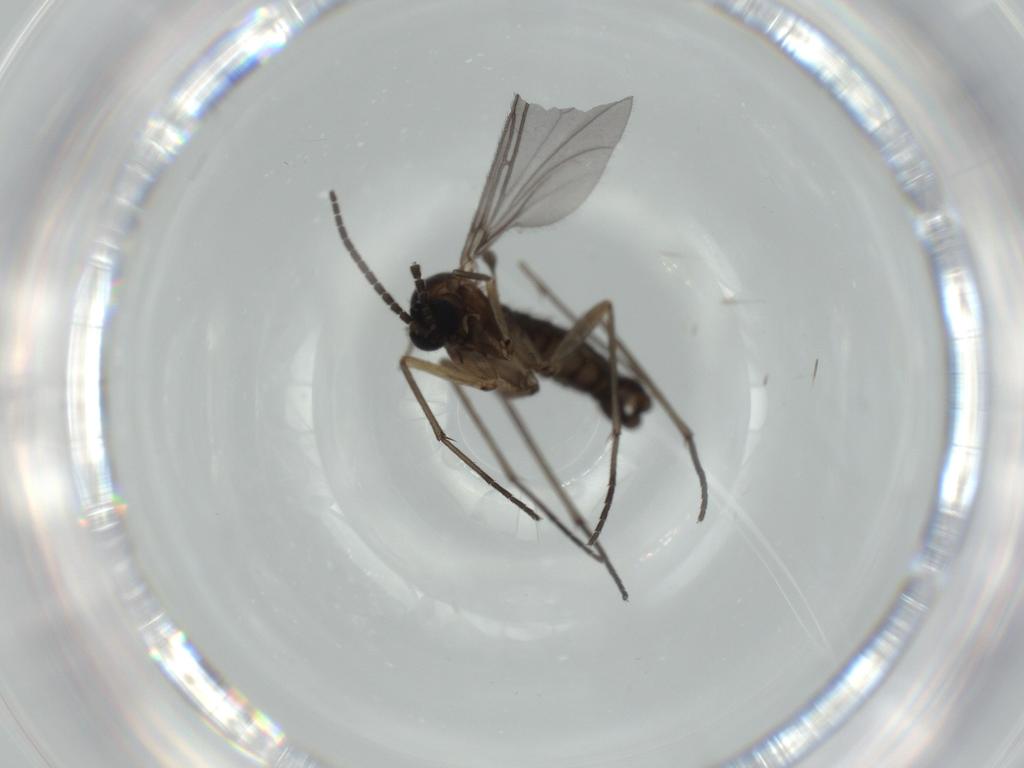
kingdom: Animalia
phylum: Arthropoda
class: Insecta
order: Diptera
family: Sciaridae
